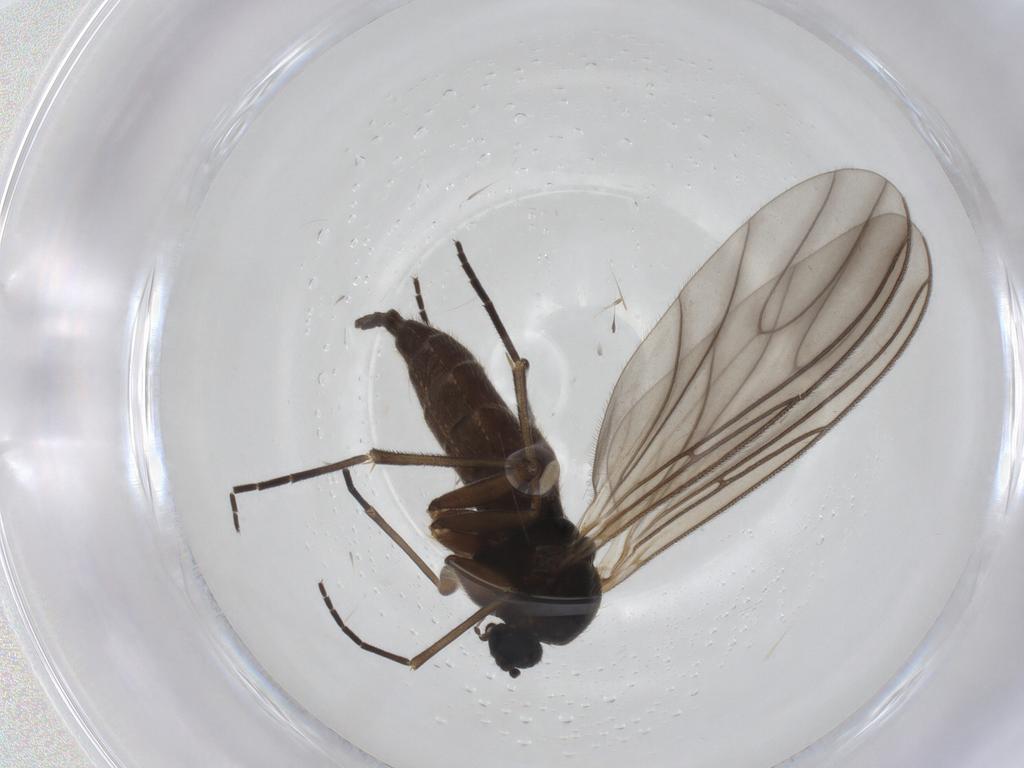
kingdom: Animalia
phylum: Arthropoda
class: Insecta
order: Diptera
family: Sciaridae
